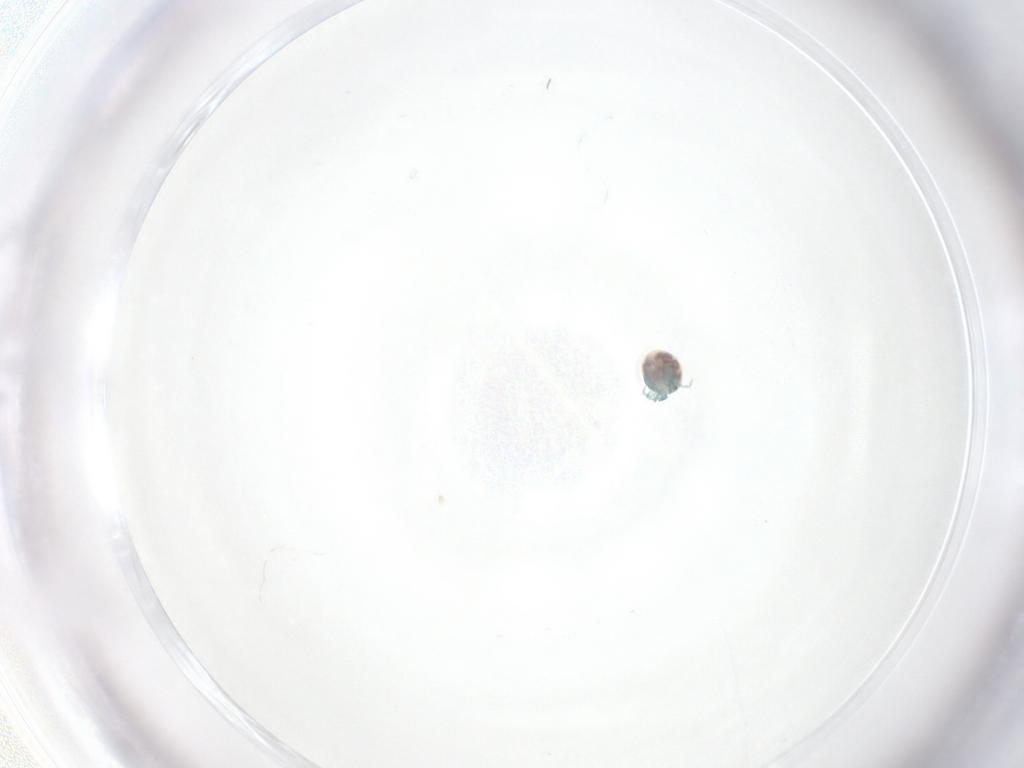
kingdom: Animalia
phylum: Arthropoda
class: Arachnida
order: Trombidiformes
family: Arrenuridae
